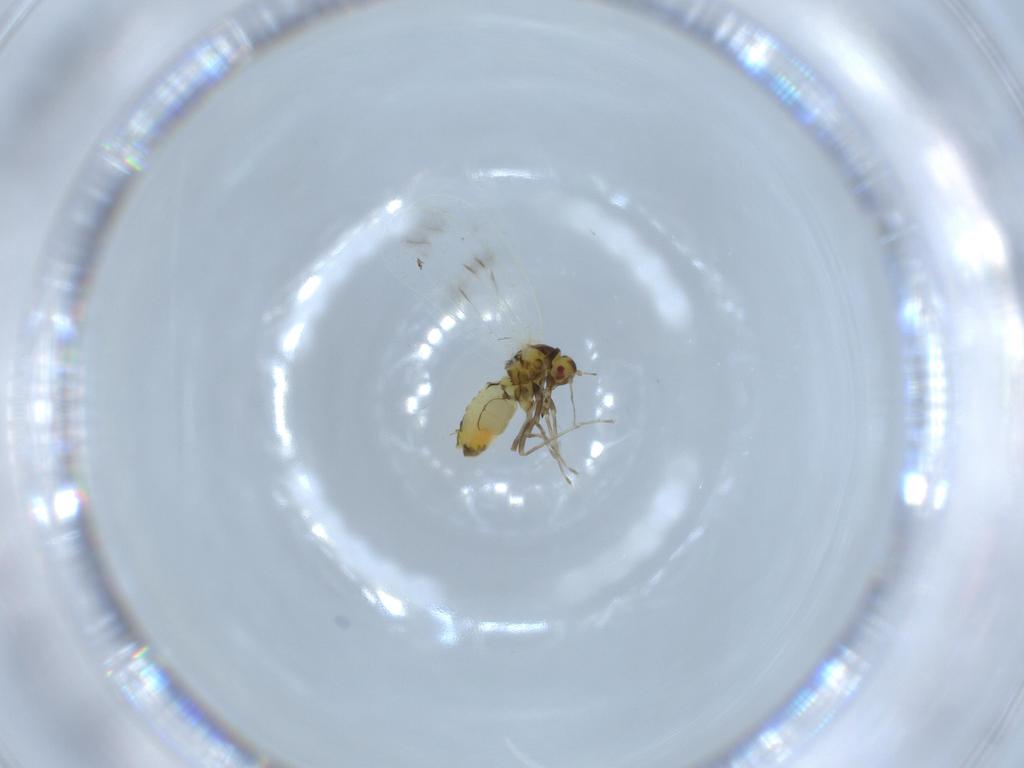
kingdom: Animalia
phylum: Arthropoda
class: Insecta
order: Hemiptera
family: Aleyrodidae
